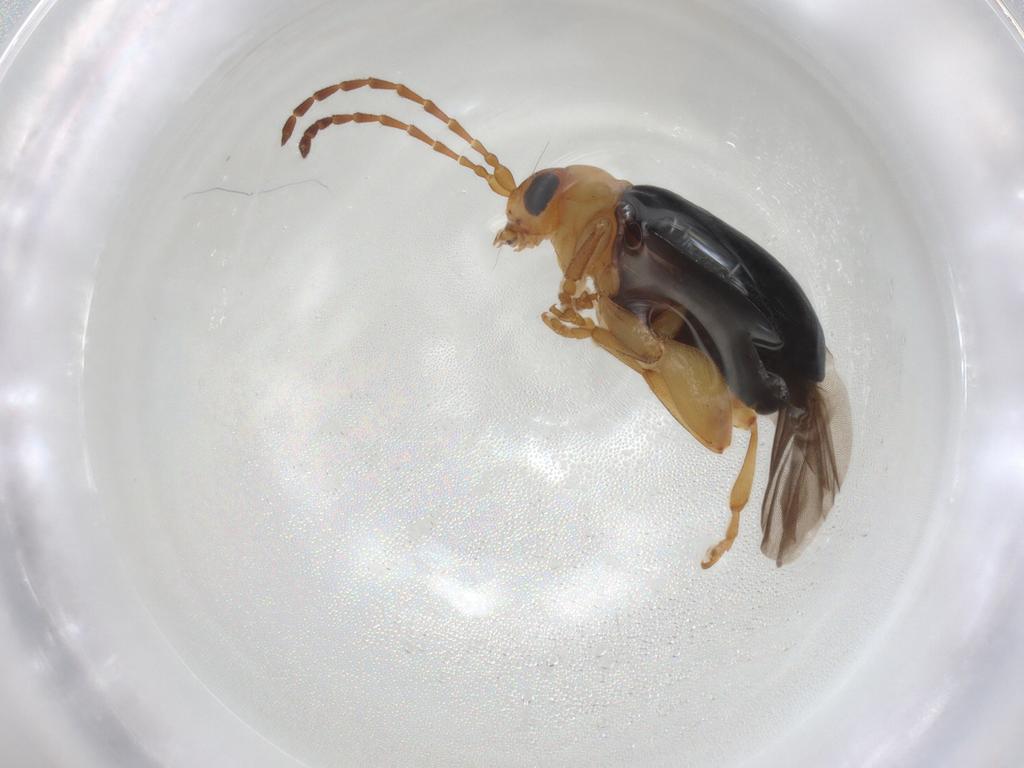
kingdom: Animalia
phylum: Arthropoda
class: Insecta
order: Coleoptera
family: Chrysomelidae
